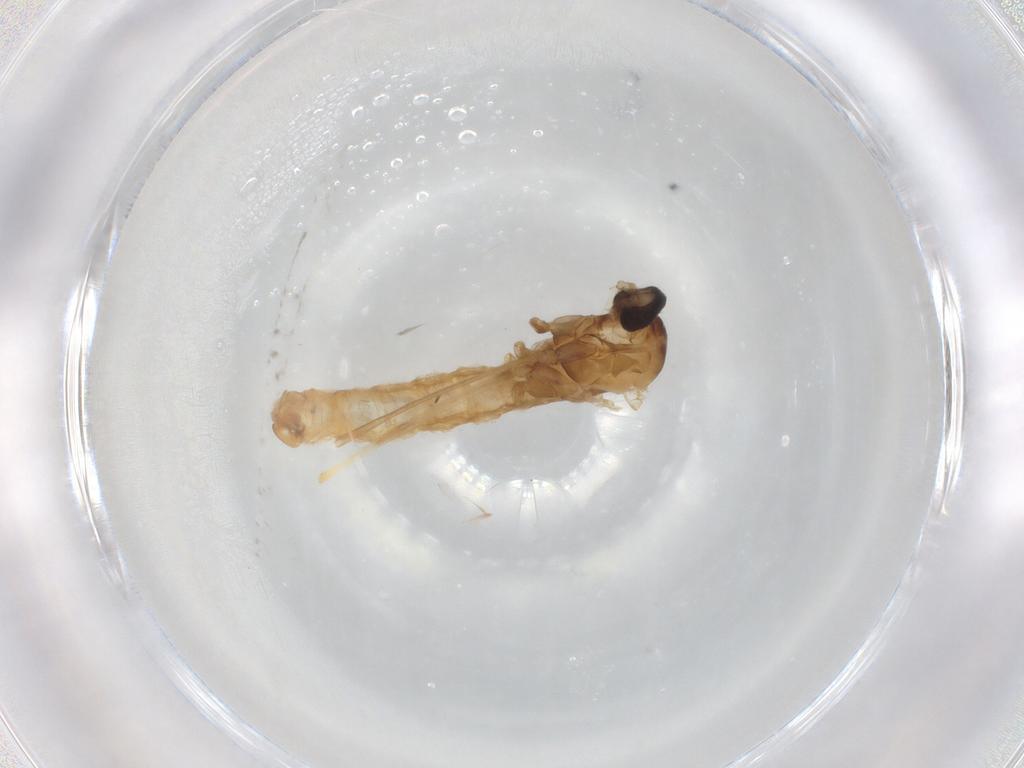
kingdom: Animalia
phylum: Arthropoda
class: Insecta
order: Diptera
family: Cecidomyiidae
